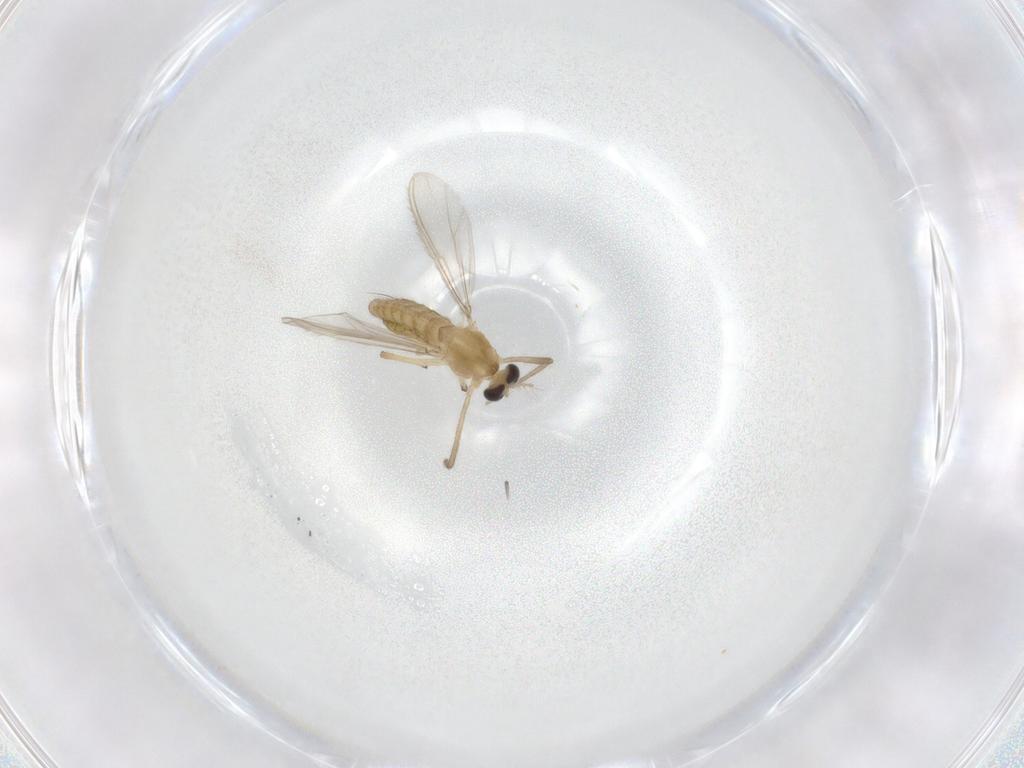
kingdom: Animalia
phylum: Arthropoda
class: Insecta
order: Diptera
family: Chironomidae
